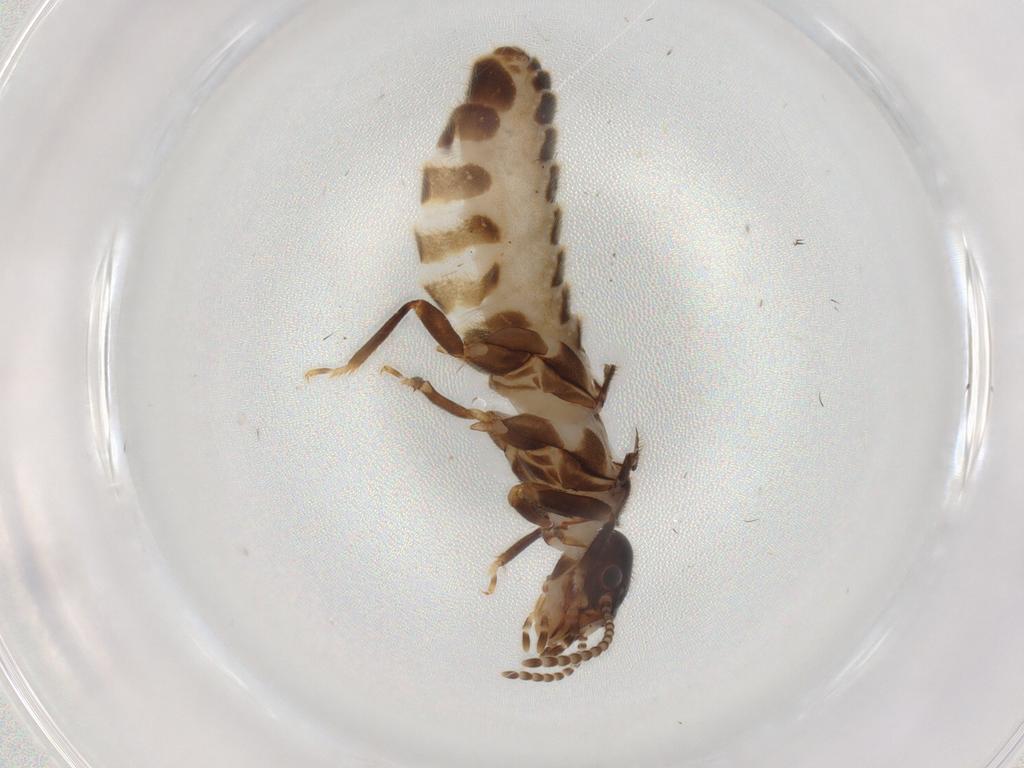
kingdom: Animalia
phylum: Arthropoda
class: Insecta
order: Blattodea
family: Termitidae
